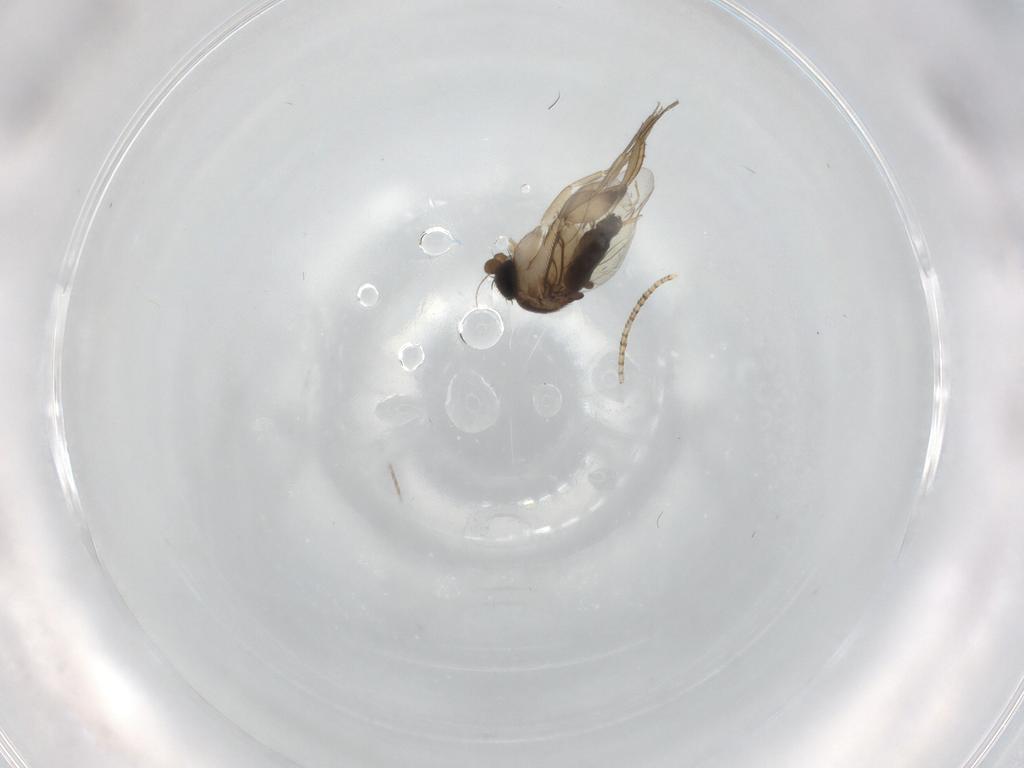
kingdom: Animalia
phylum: Arthropoda
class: Insecta
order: Diptera
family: Phoridae
